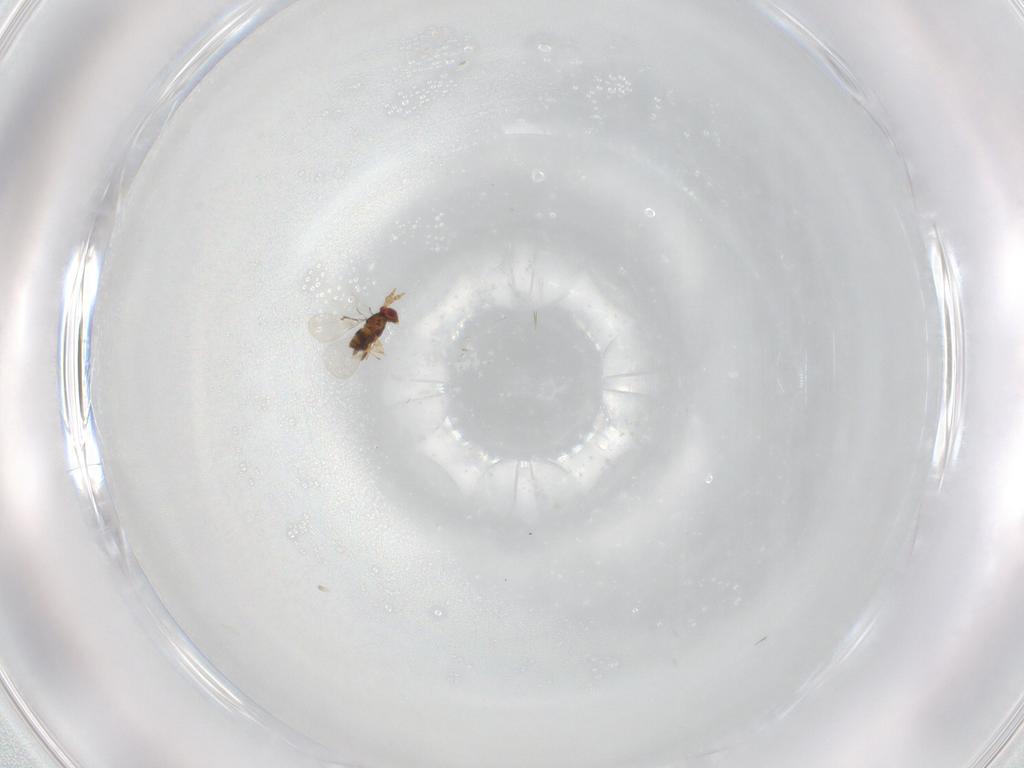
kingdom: Animalia
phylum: Arthropoda
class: Insecta
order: Hymenoptera
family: Trichogrammatidae
